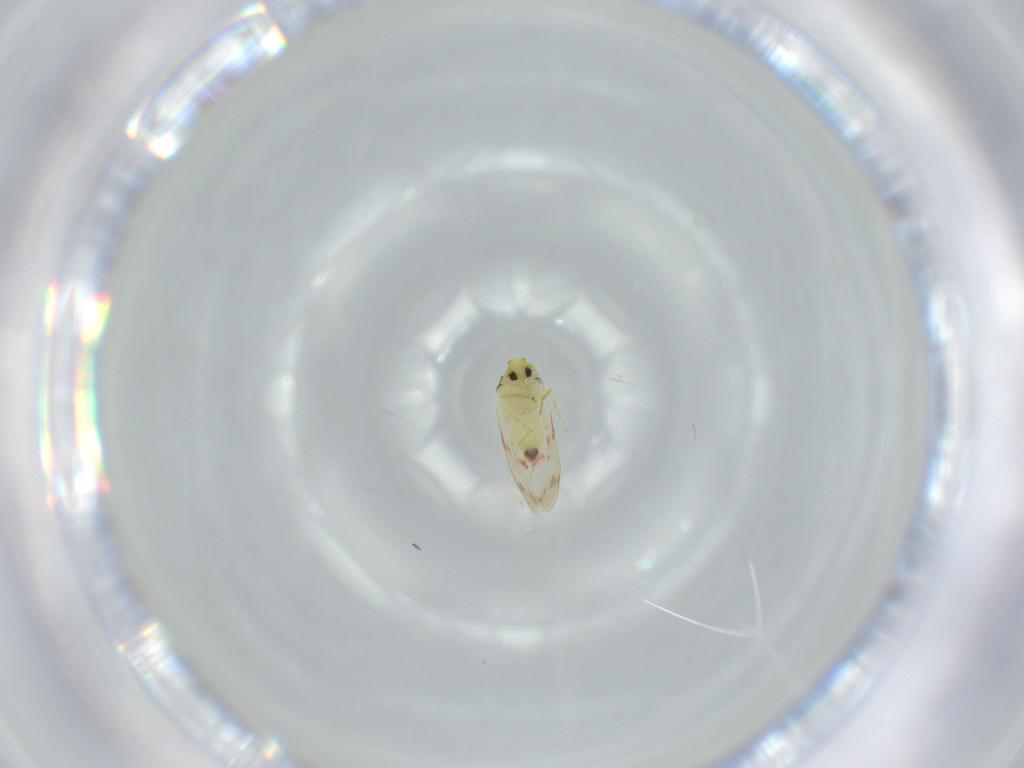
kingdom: Animalia
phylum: Arthropoda
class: Insecta
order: Hemiptera
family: Aleyrodidae
